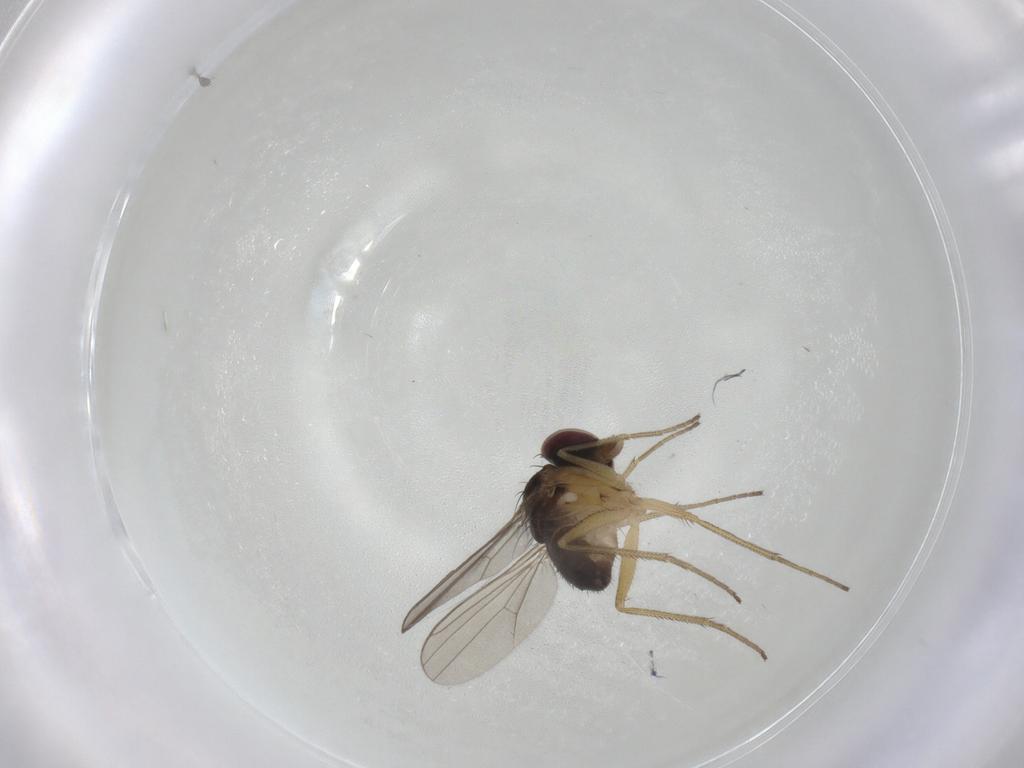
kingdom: Animalia
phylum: Arthropoda
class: Insecta
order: Diptera
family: Dolichopodidae
